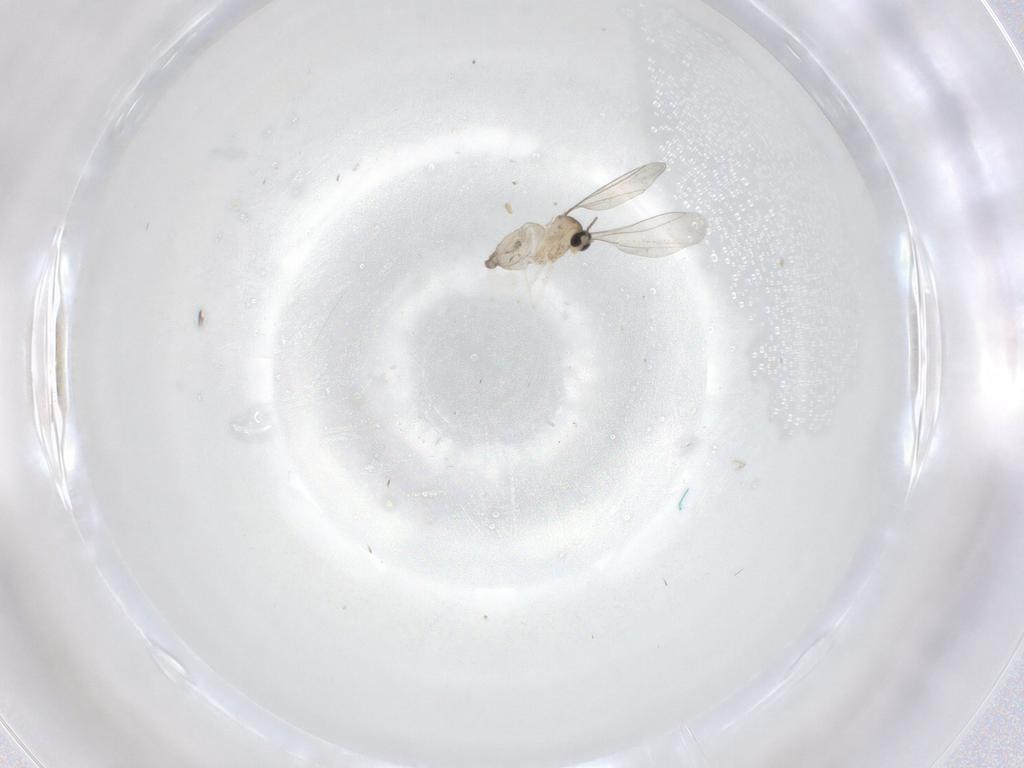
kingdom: Animalia
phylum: Arthropoda
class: Insecta
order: Diptera
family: Cecidomyiidae
